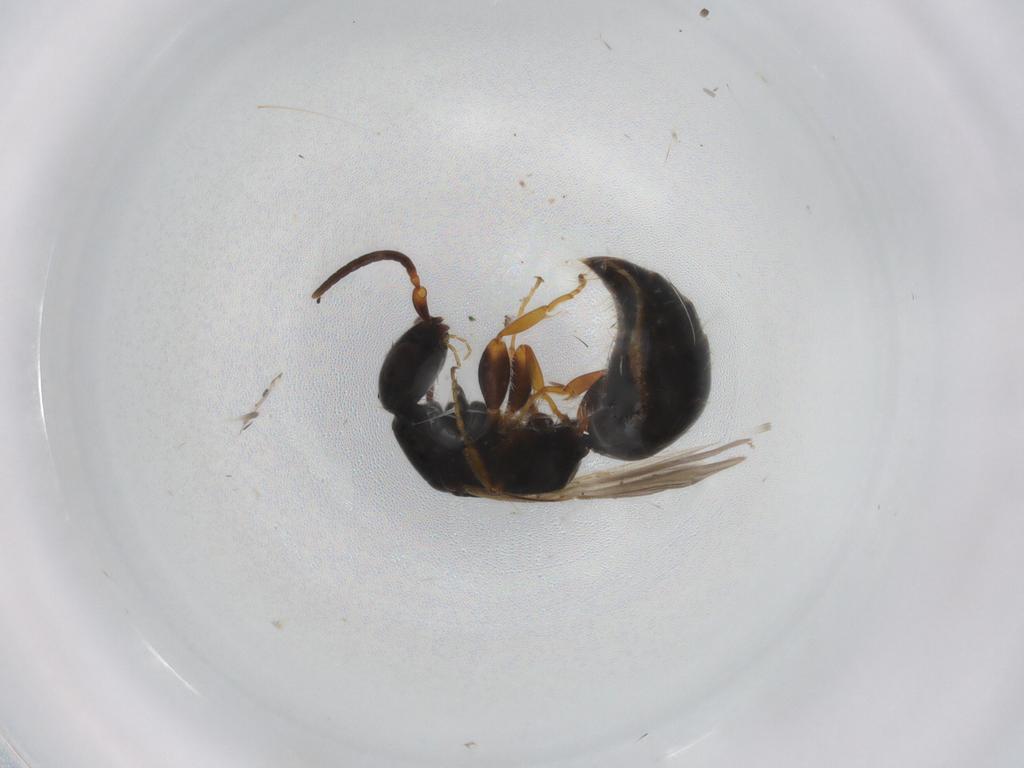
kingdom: Animalia
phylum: Arthropoda
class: Insecta
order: Hymenoptera
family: Bethylidae
